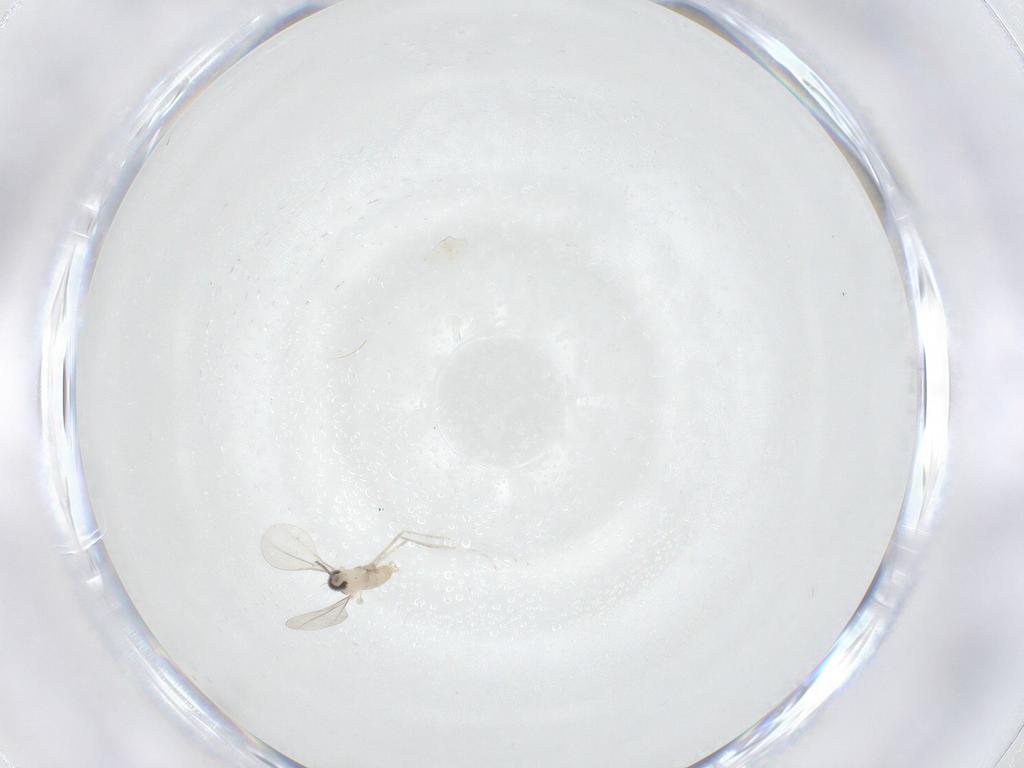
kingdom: Animalia
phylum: Arthropoda
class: Insecta
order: Diptera
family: Cecidomyiidae
